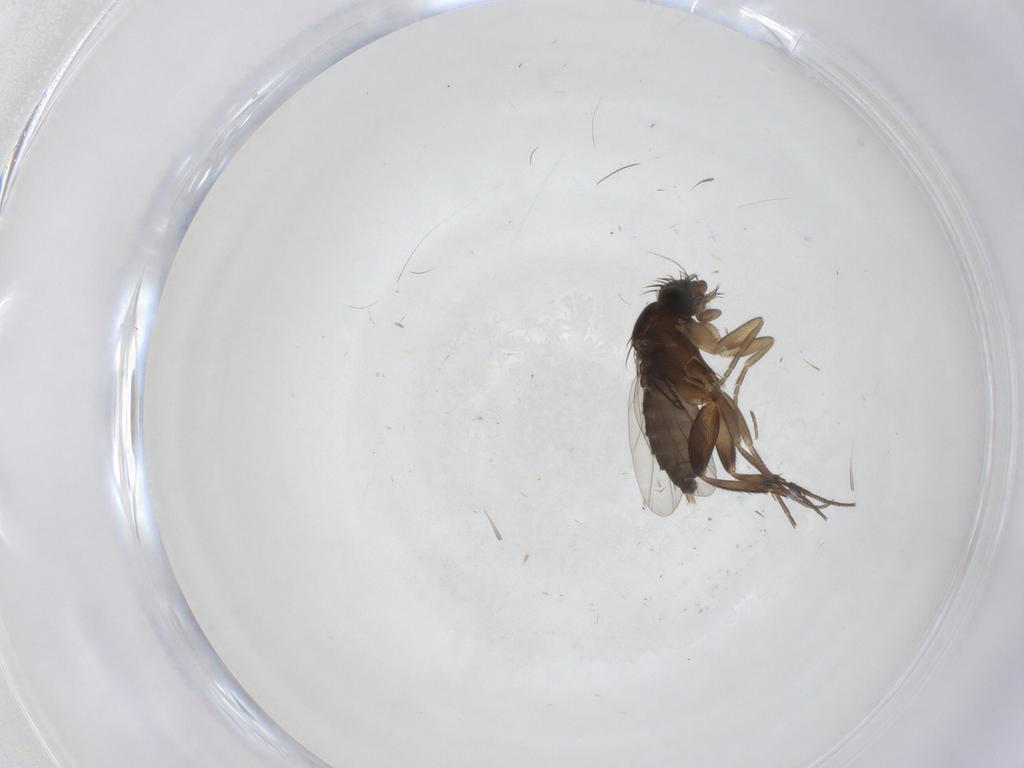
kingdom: Animalia
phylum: Arthropoda
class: Insecta
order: Diptera
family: Phoridae
